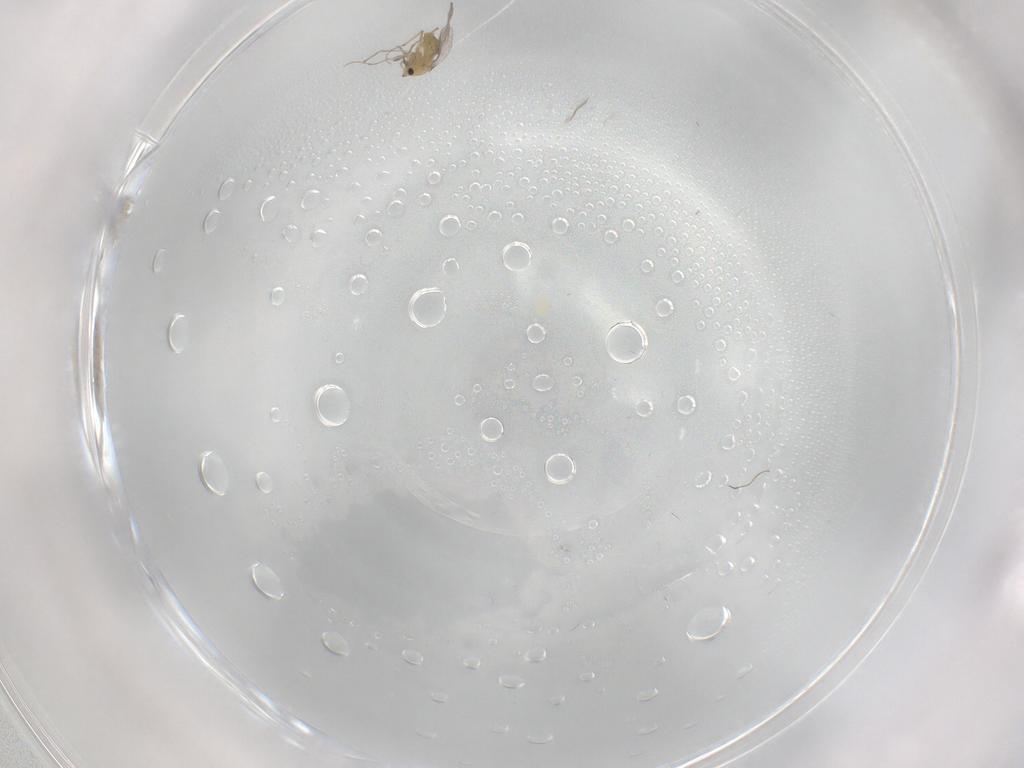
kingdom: Animalia
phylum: Arthropoda
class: Insecta
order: Diptera
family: Chironomidae
